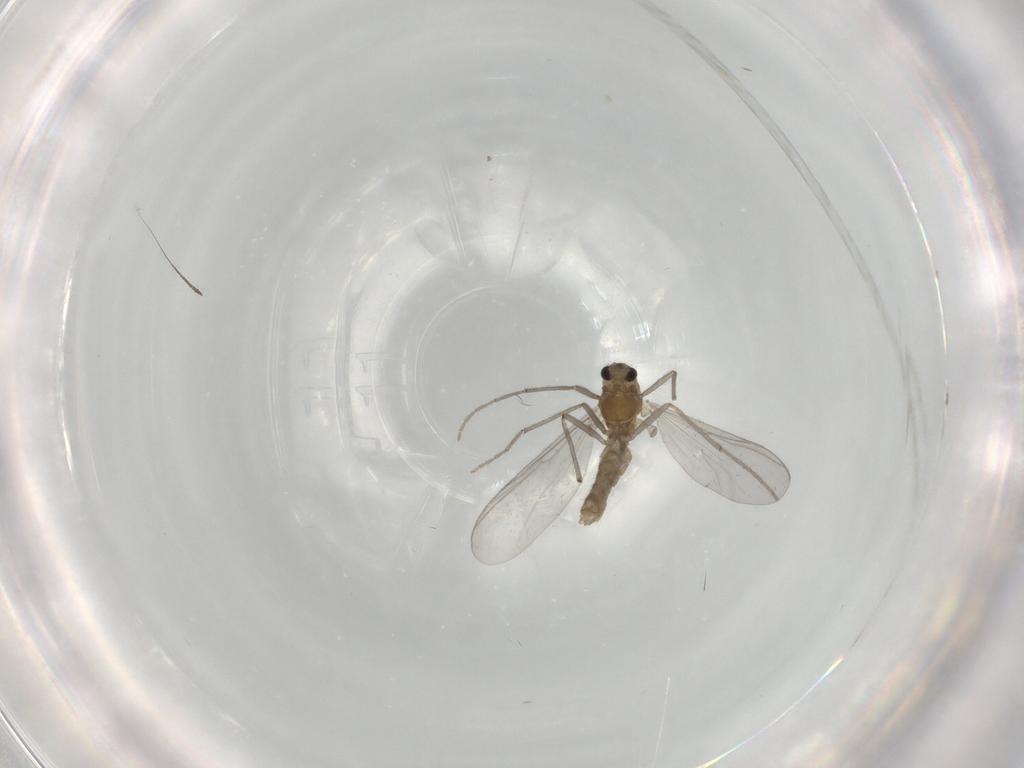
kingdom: Animalia
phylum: Arthropoda
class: Insecta
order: Diptera
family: Chironomidae
